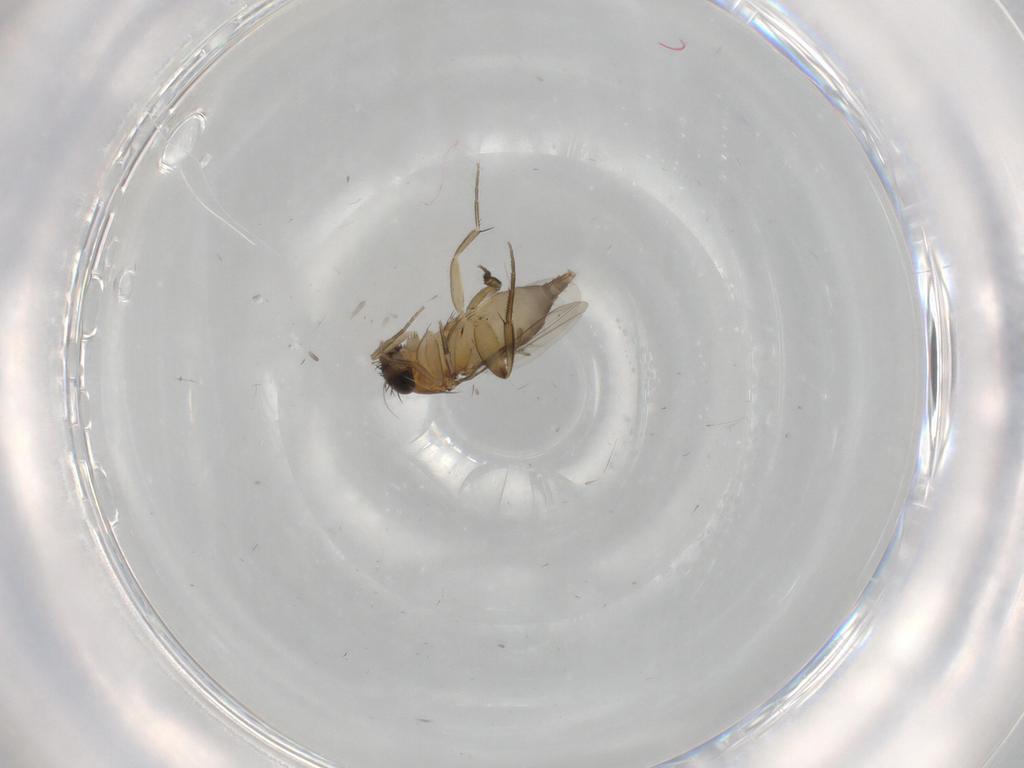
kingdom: Animalia
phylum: Arthropoda
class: Insecta
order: Diptera
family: Phoridae
